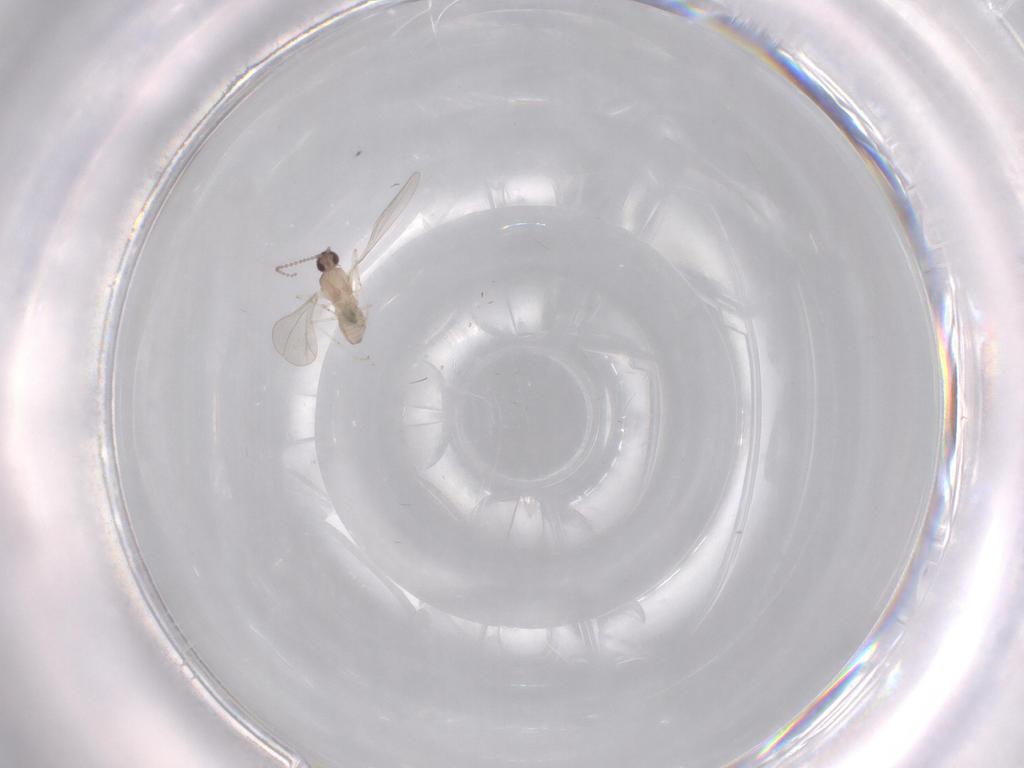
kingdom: Animalia
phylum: Arthropoda
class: Insecta
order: Diptera
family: Cecidomyiidae
